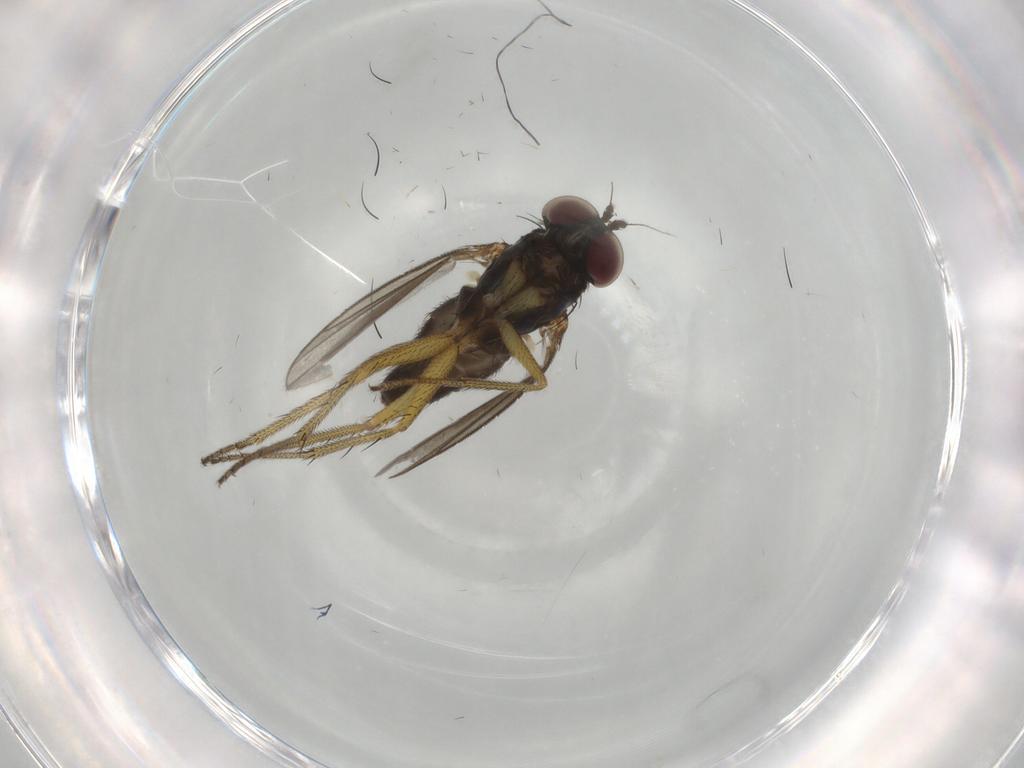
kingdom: Animalia
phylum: Arthropoda
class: Insecta
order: Diptera
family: Dolichopodidae
